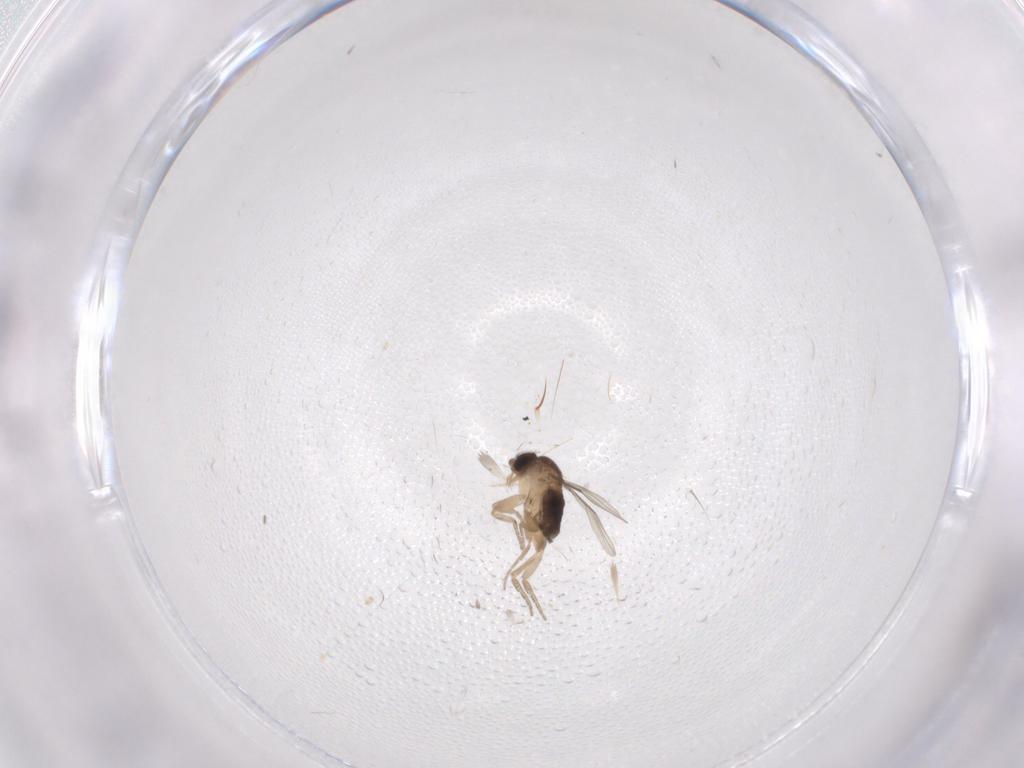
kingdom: Animalia
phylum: Arthropoda
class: Insecta
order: Diptera
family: Phoridae
